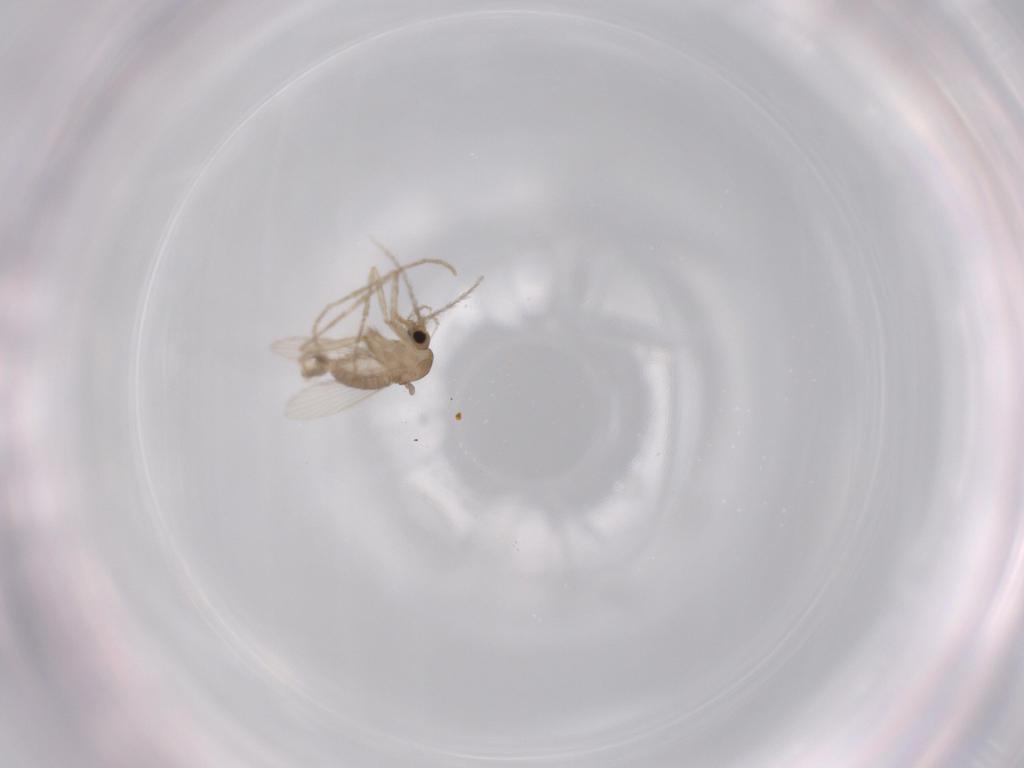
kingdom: Animalia
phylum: Arthropoda
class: Insecta
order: Diptera
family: Psychodidae
